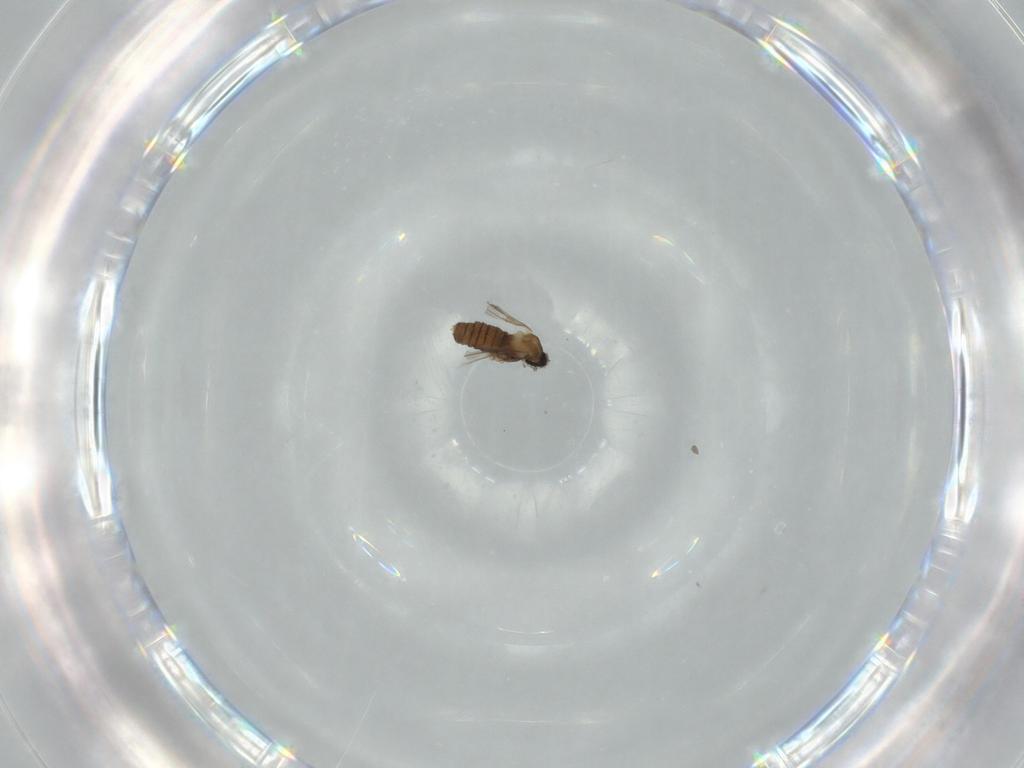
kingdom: Animalia
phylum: Arthropoda
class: Insecta
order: Diptera
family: Cecidomyiidae
